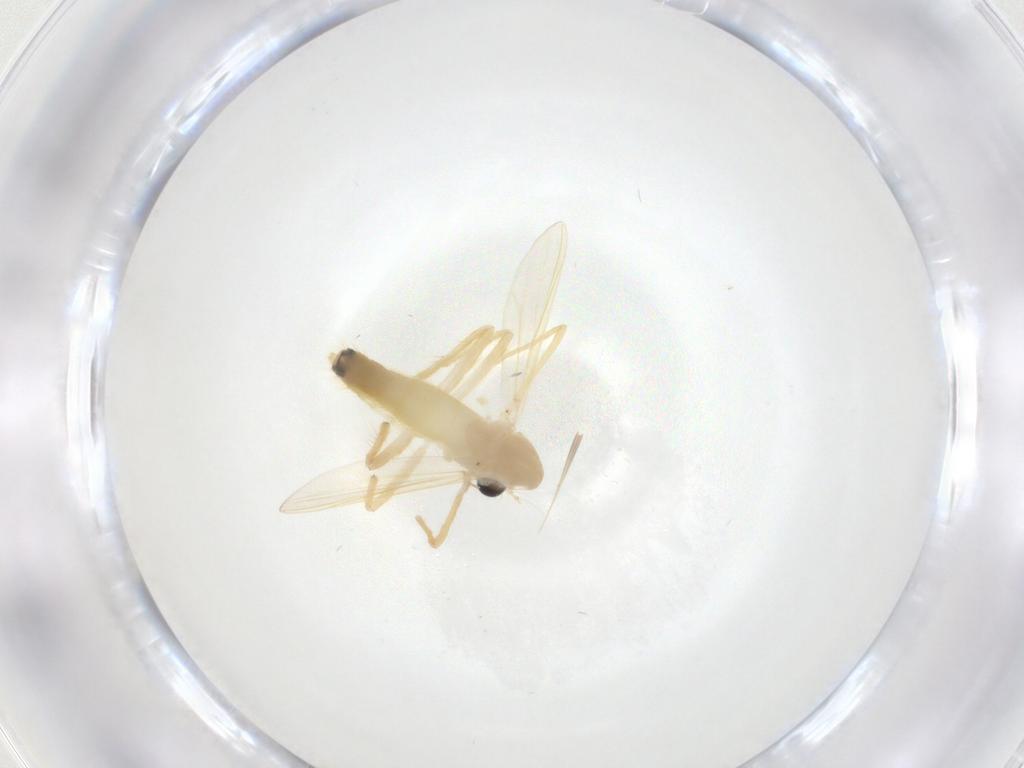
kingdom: Animalia
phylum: Arthropoda
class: Insecta
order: Diptera
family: Chironomidae
